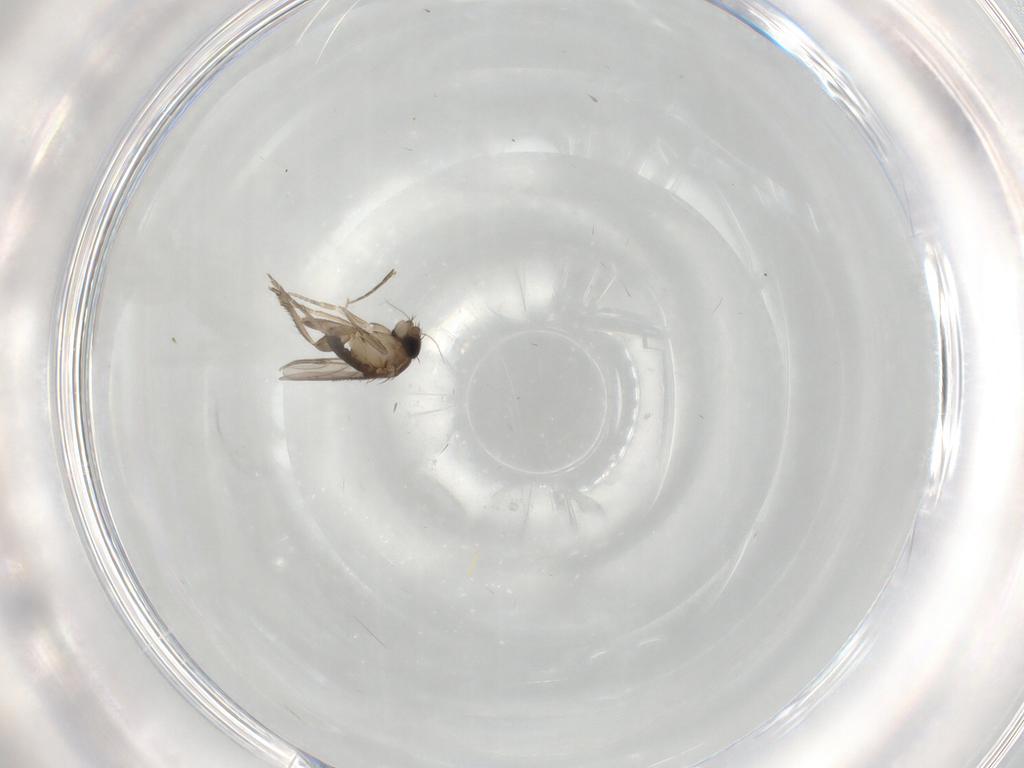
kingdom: Animalia
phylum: Arthropoda
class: Insecta
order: Diptera
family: Phoridae
